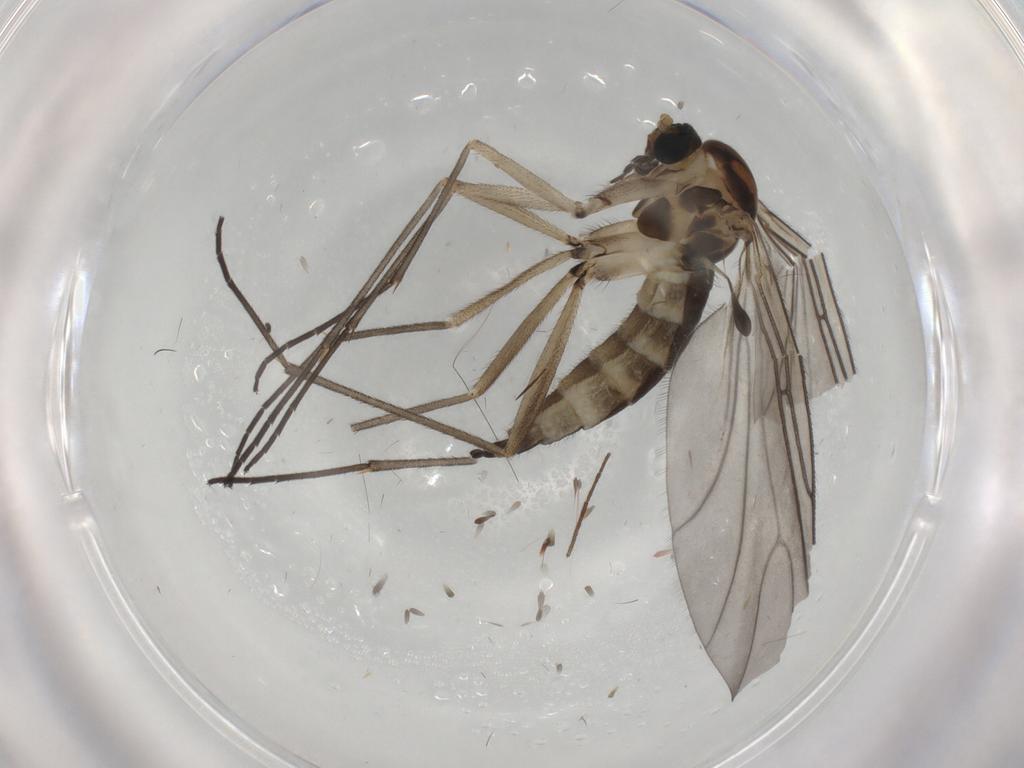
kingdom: Animalia
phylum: Arthropoda
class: Insecta
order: Diptera
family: Sciaridae
